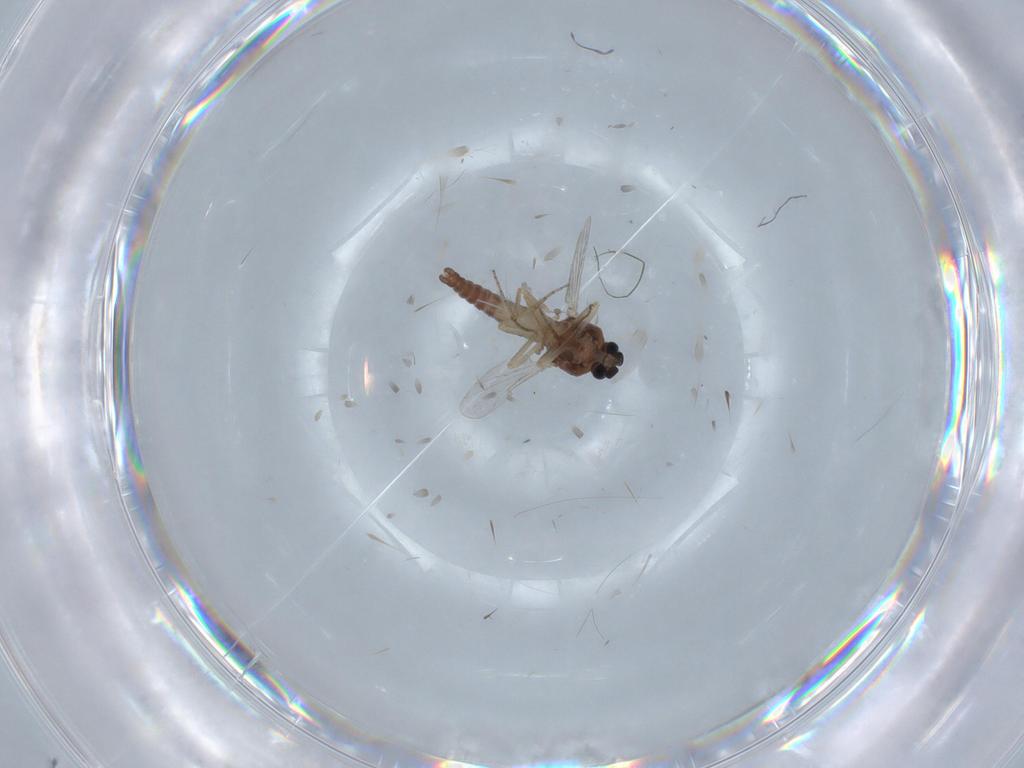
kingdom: Animalia
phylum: Arthropoda
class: Insecta
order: Diptera
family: Ceratopogonidae
